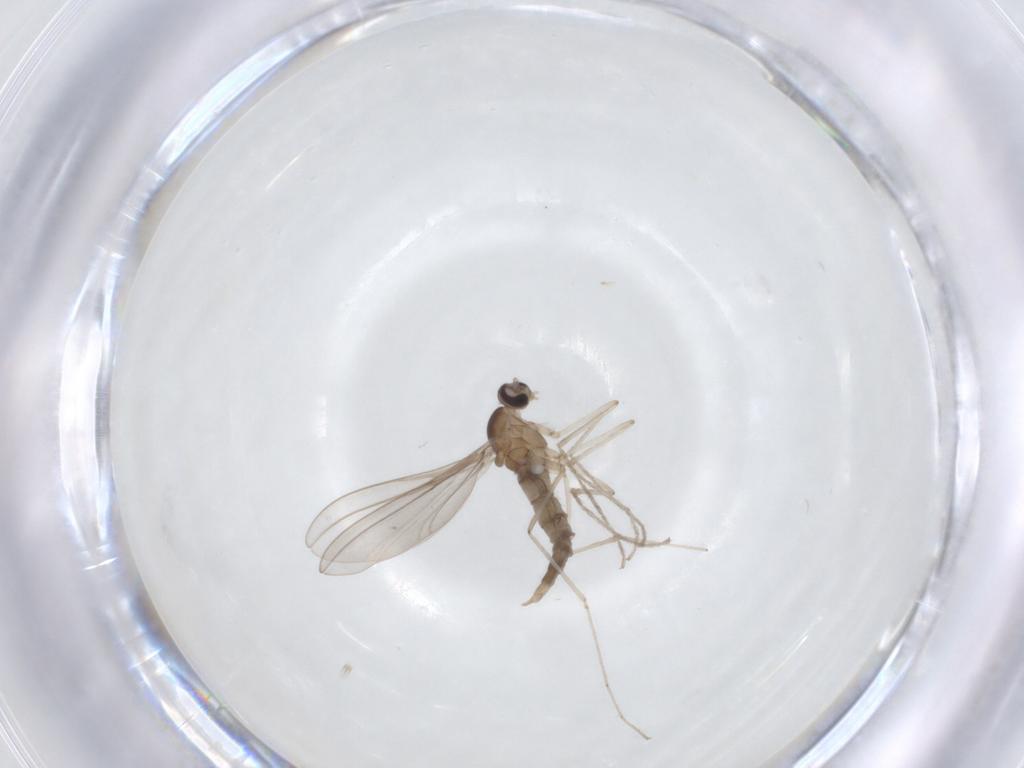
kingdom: Animalia
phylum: Arthropoda
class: Insecta
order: Diptera
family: Cecidomyiidae
